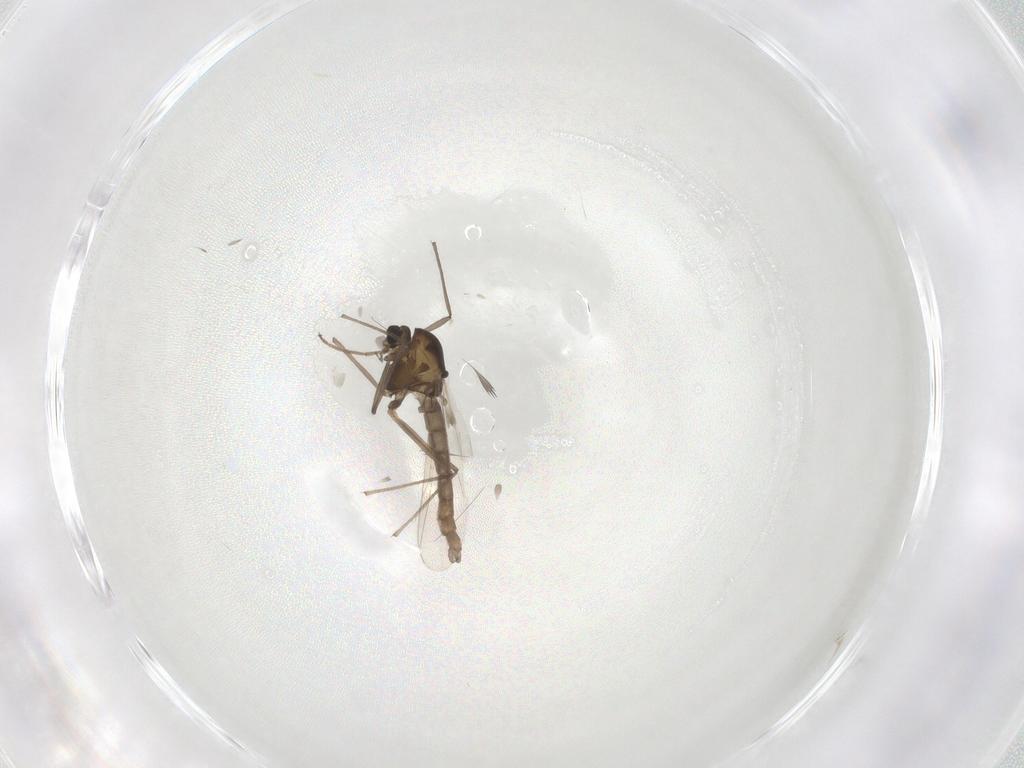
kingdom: Animalia
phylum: Arthropoda
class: Insecta
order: Diptera
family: Chironomidae
